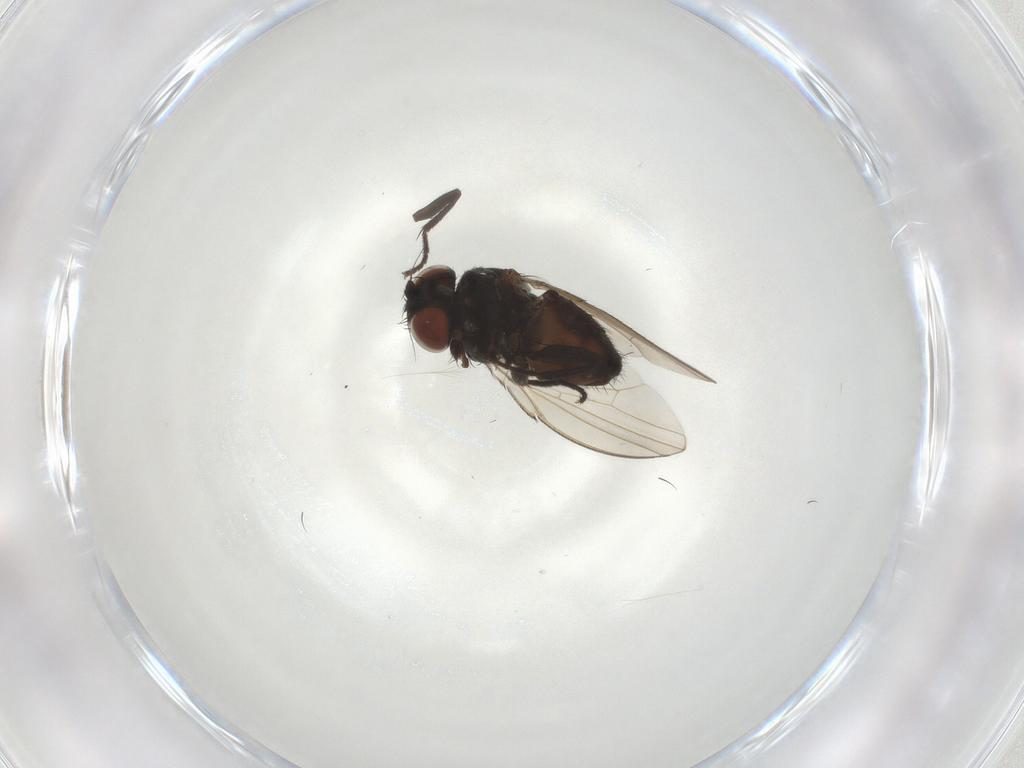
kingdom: Animalia
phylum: Arthropoda
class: Insecta
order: Diptera
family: Milichiidae
